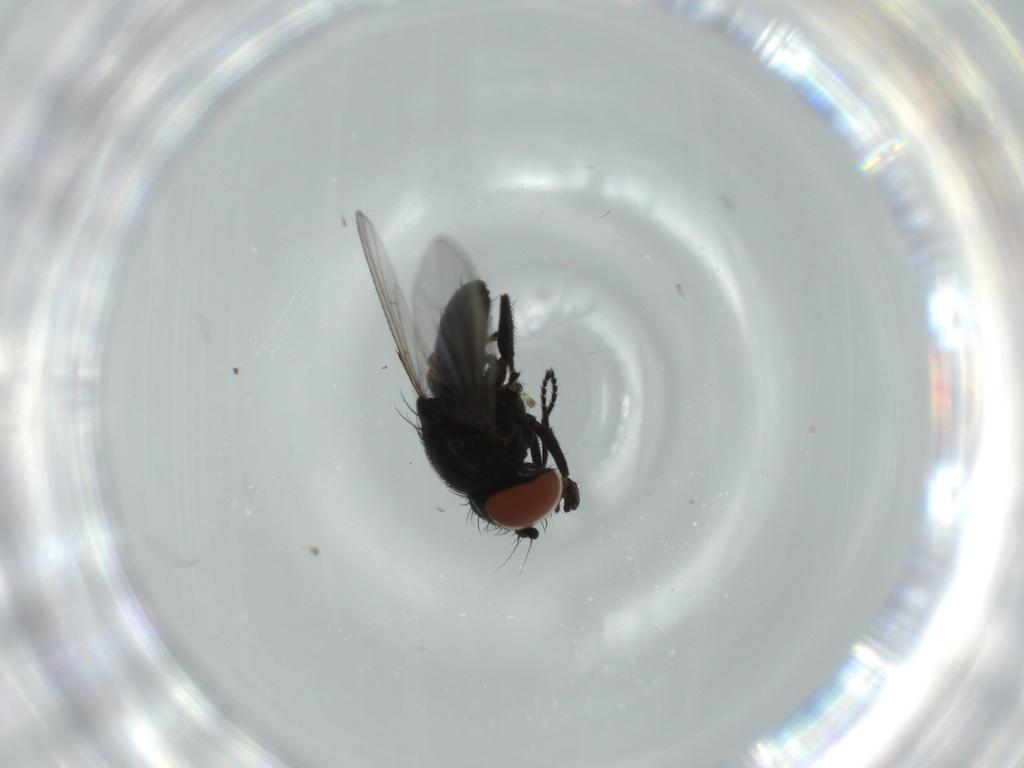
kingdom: Animalia
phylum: Arthropoda
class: Insecta
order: Diptera
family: Milichiidae
